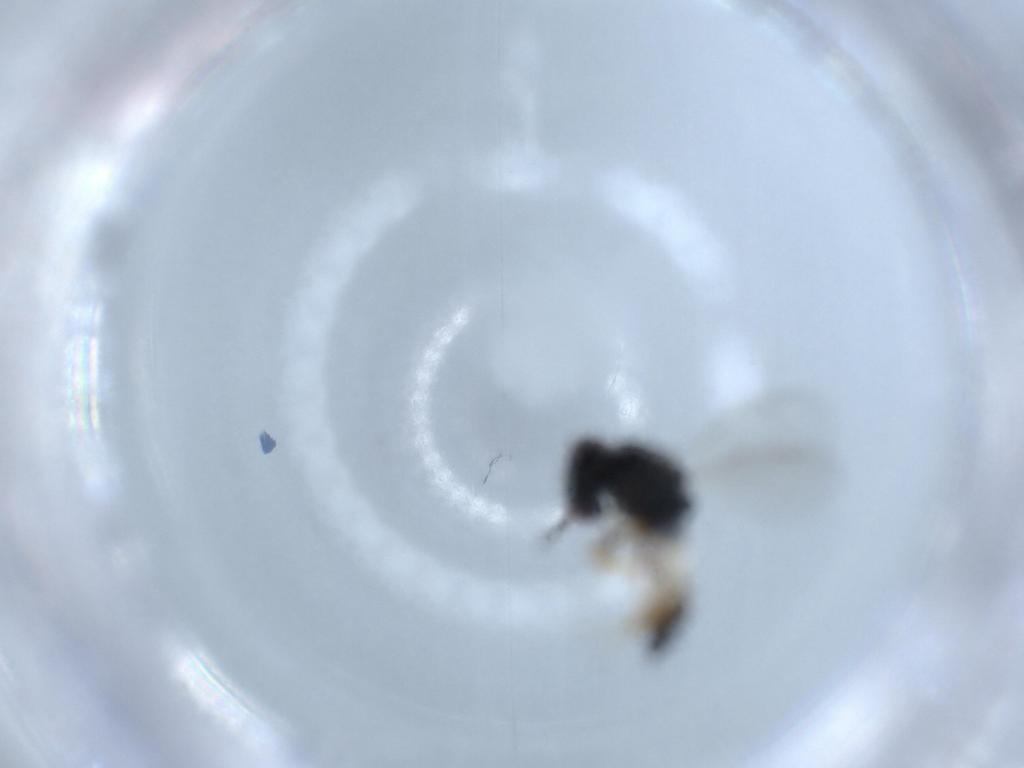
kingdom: Animalia
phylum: Arthropoda
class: Insecta
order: Hymenoptera
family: Pteromalidae
